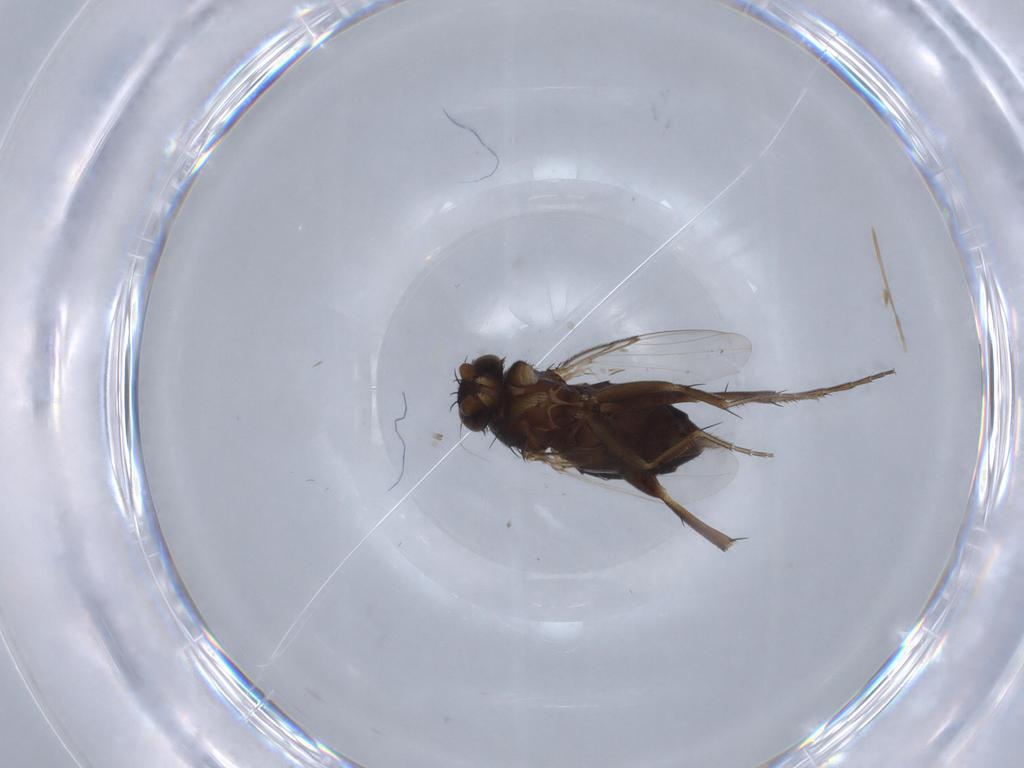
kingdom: Animalia
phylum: Arthropoda
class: Insecta
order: Diptera
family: Phoridae
